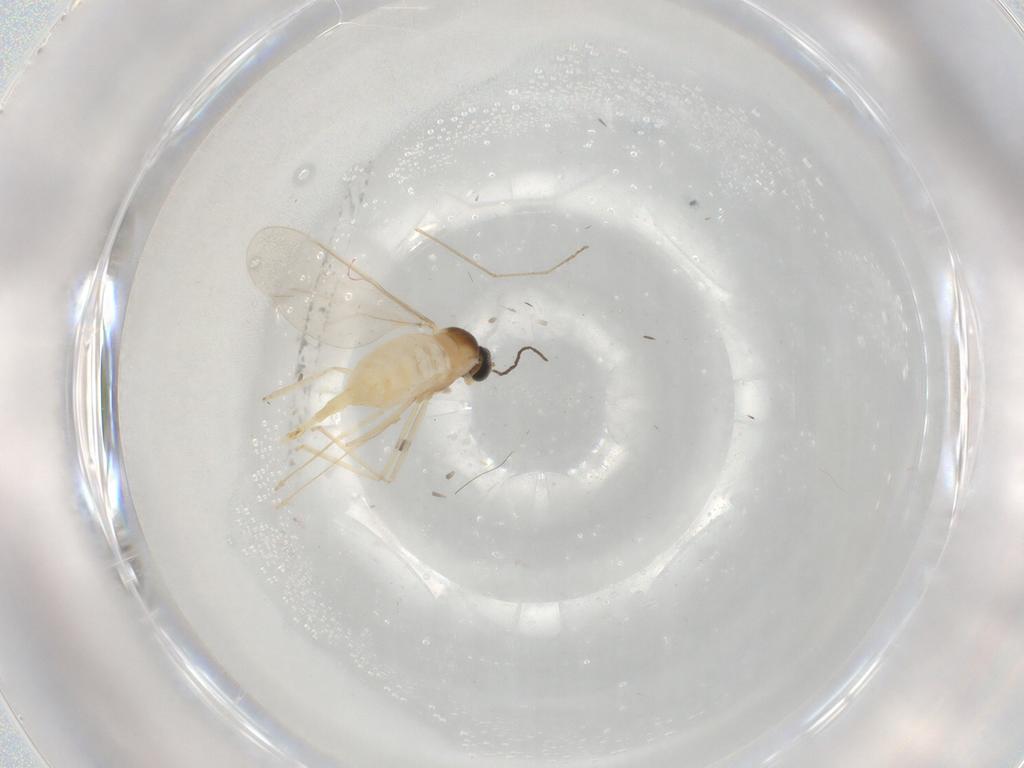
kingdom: Animalia
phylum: Arthropoda
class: Insecta
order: Diptera
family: Cecidomyiidae
